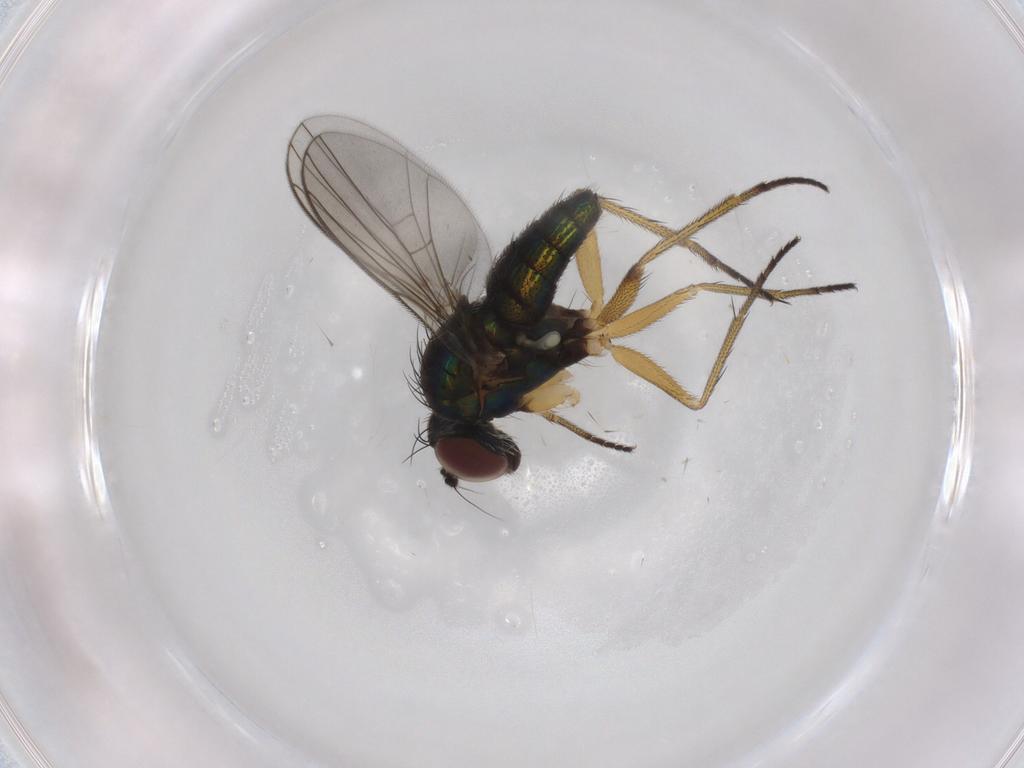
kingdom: Animalia
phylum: Arthropoda
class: Insecta
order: Diptera
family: Dolichopodidae
